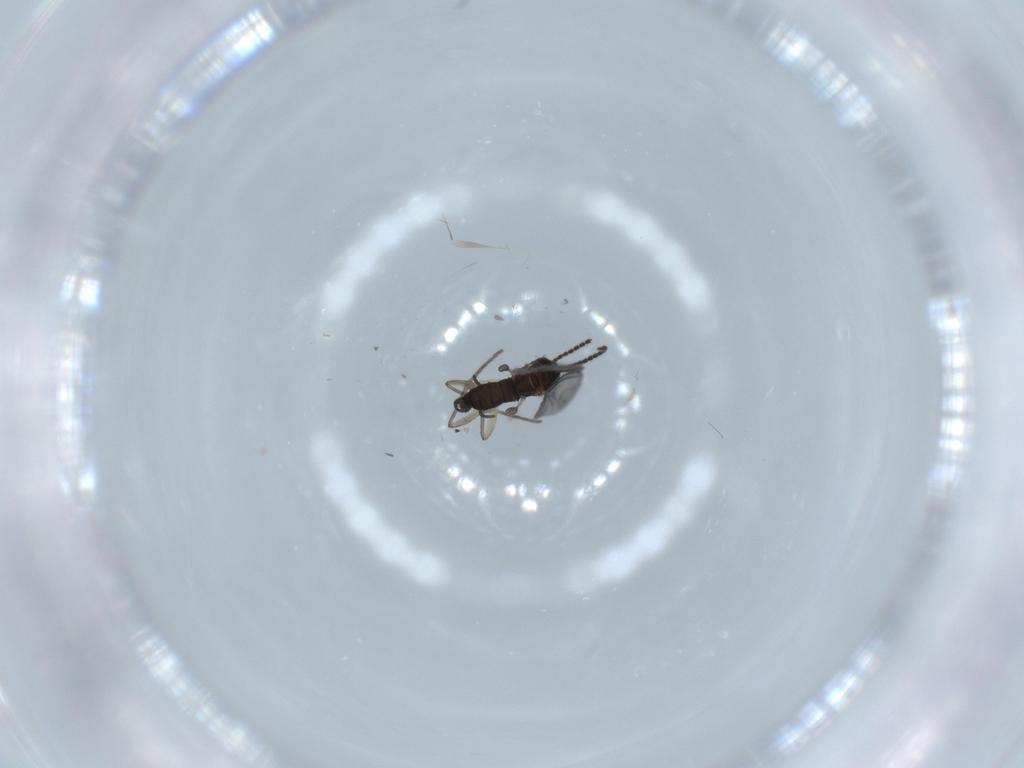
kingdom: Animalia
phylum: Arthropoda
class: Insecta
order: Diptera
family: Sciaridae
